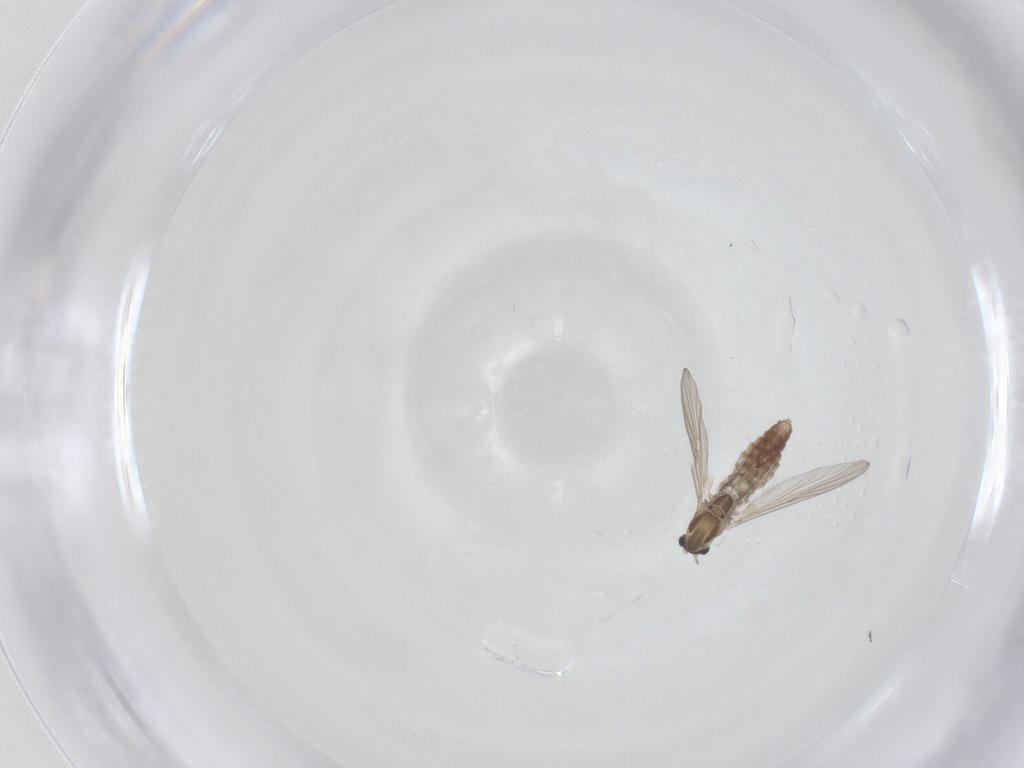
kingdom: Animalia
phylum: Arthropoda
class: Insecta
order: Diptera
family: Chironomidae
